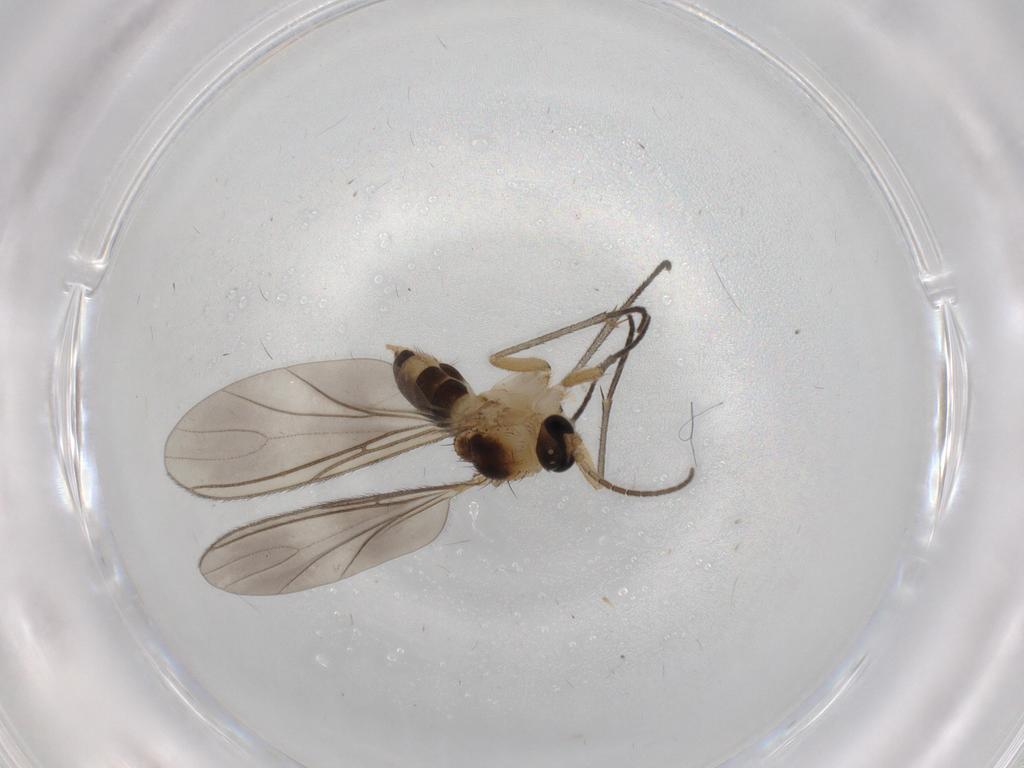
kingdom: Animalia
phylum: Arthropoda
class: Insecta
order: Diptera
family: Sciaridae
